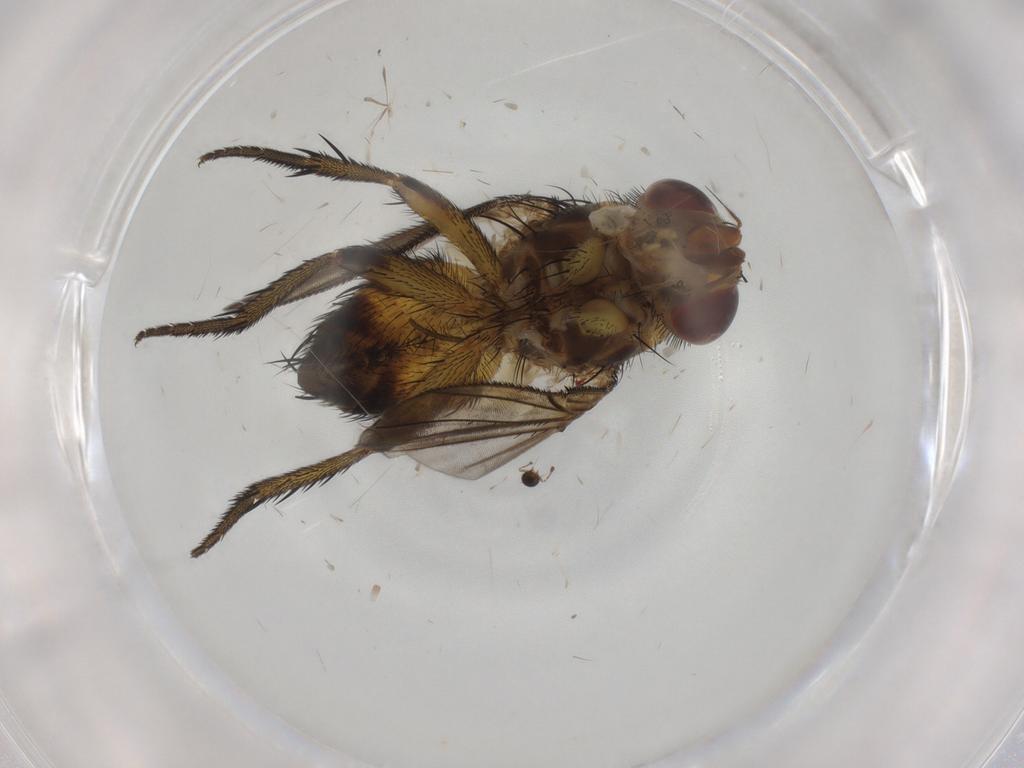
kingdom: Animalia
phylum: Arthropoda
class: Insecta
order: Diptera
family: Tachinidae
